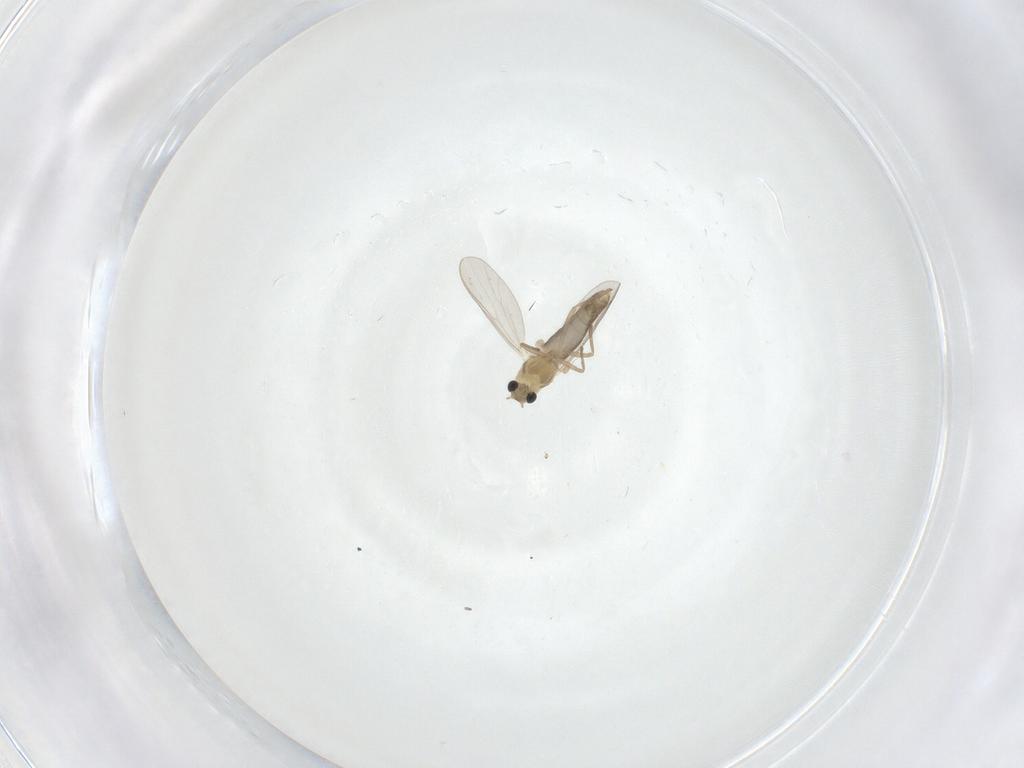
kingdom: Animalia
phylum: Arthropoda
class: Insecta
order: Diptera
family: Chironomidae
